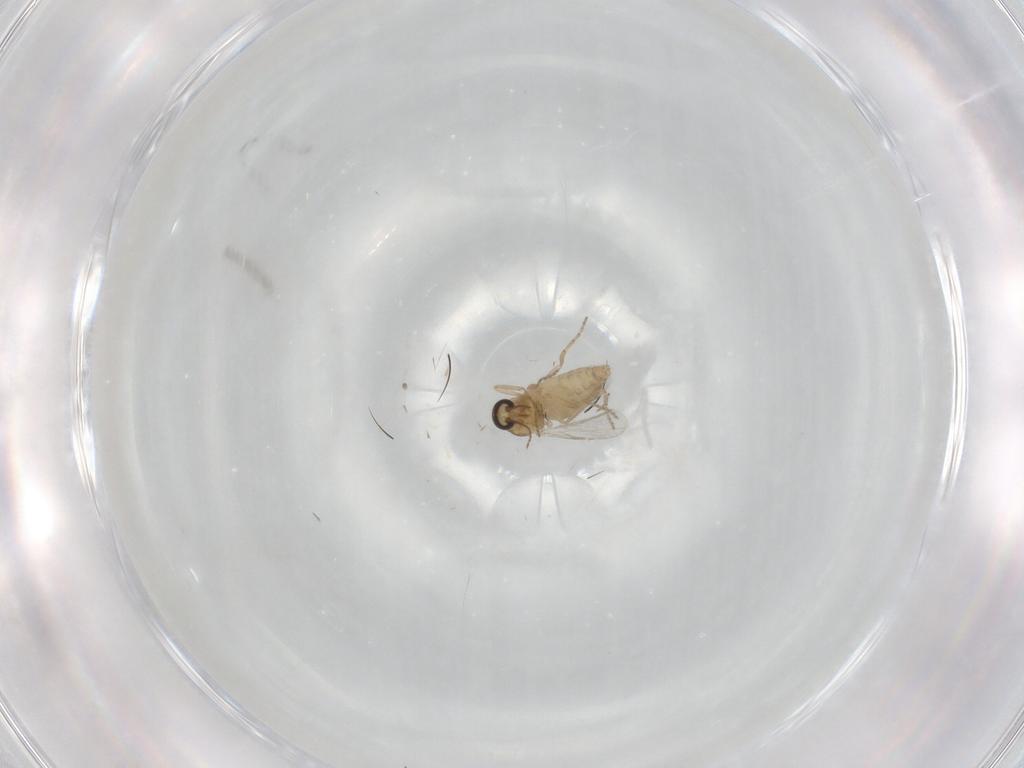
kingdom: Animalia
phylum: Arthropoda
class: Insecta
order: Diptera
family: Ceratopogonidae
